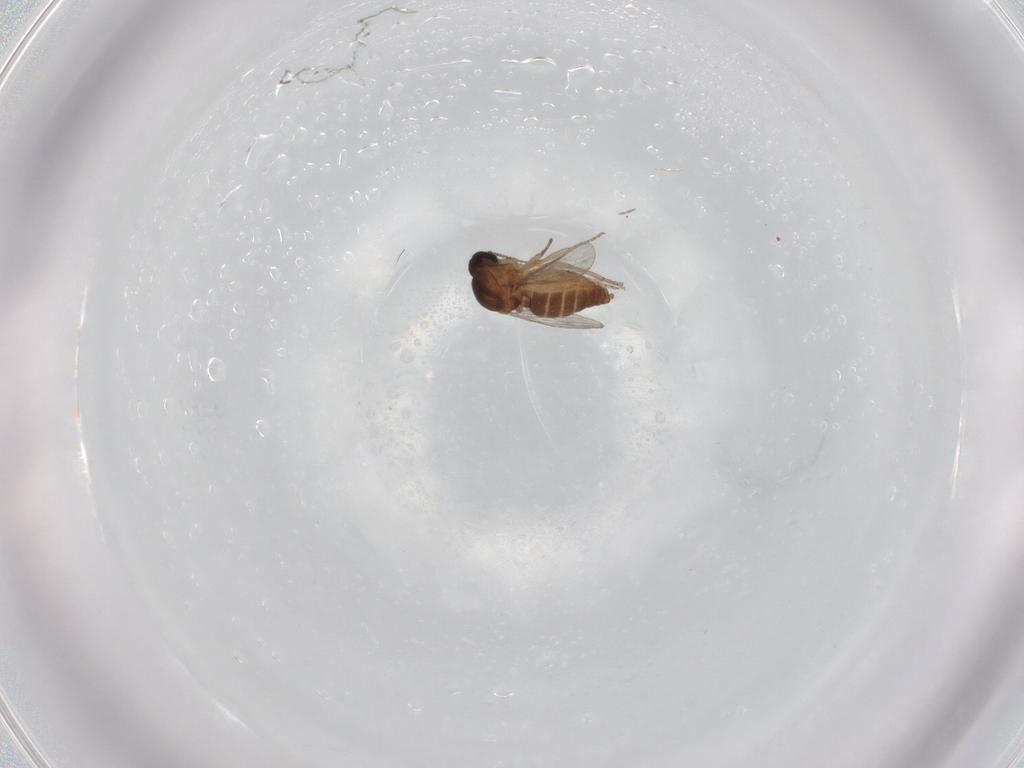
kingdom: Animalia
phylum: Arthropoda
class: Insecta
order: Diptera
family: Ceratopogonidae
